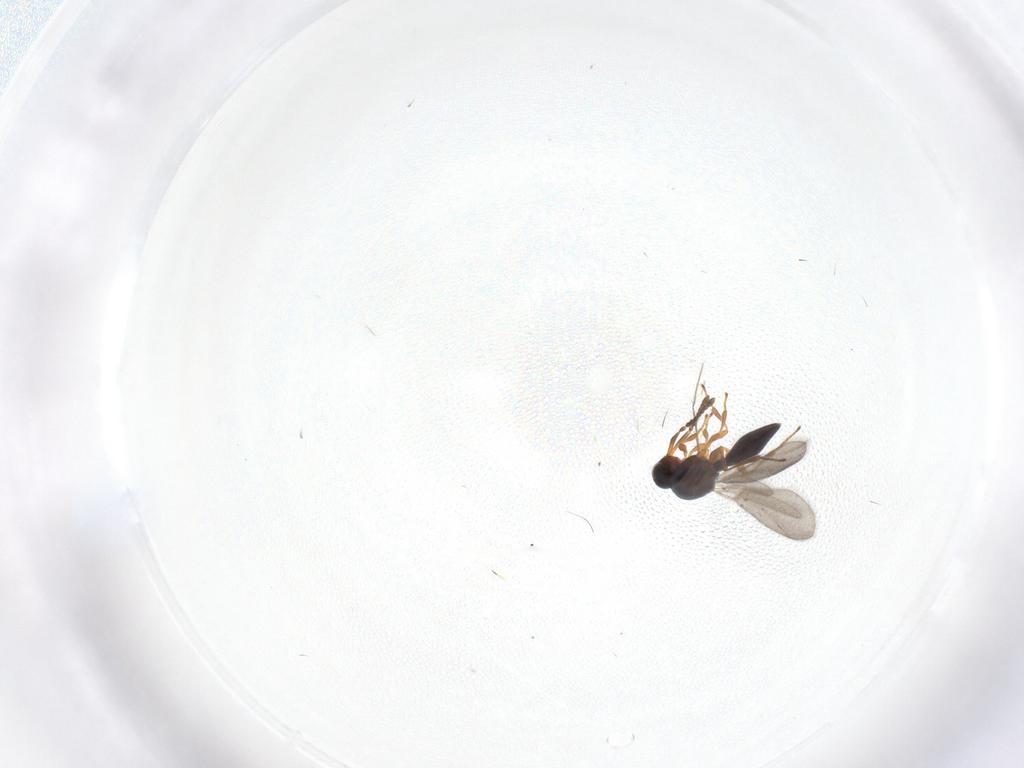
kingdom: Animalia
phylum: Arthropoda
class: Insecta
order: Hymenoptera
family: Platygastridae
